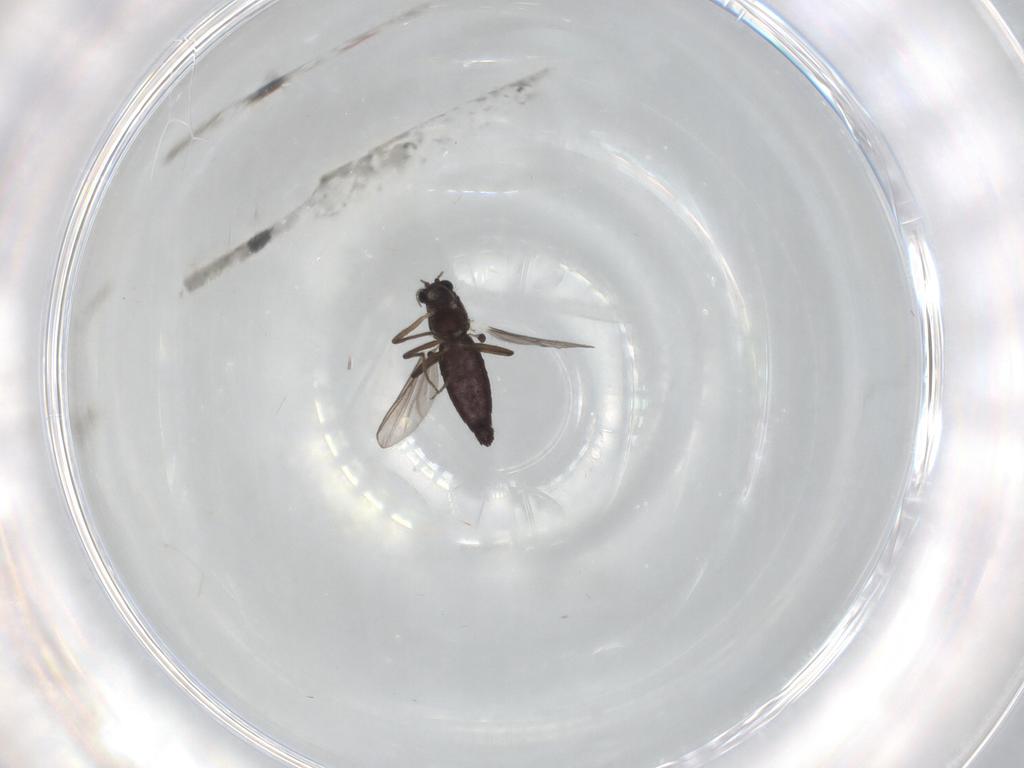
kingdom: Animalia
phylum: Arthropoda
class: Insecta
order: Diptera
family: Chironomidae
